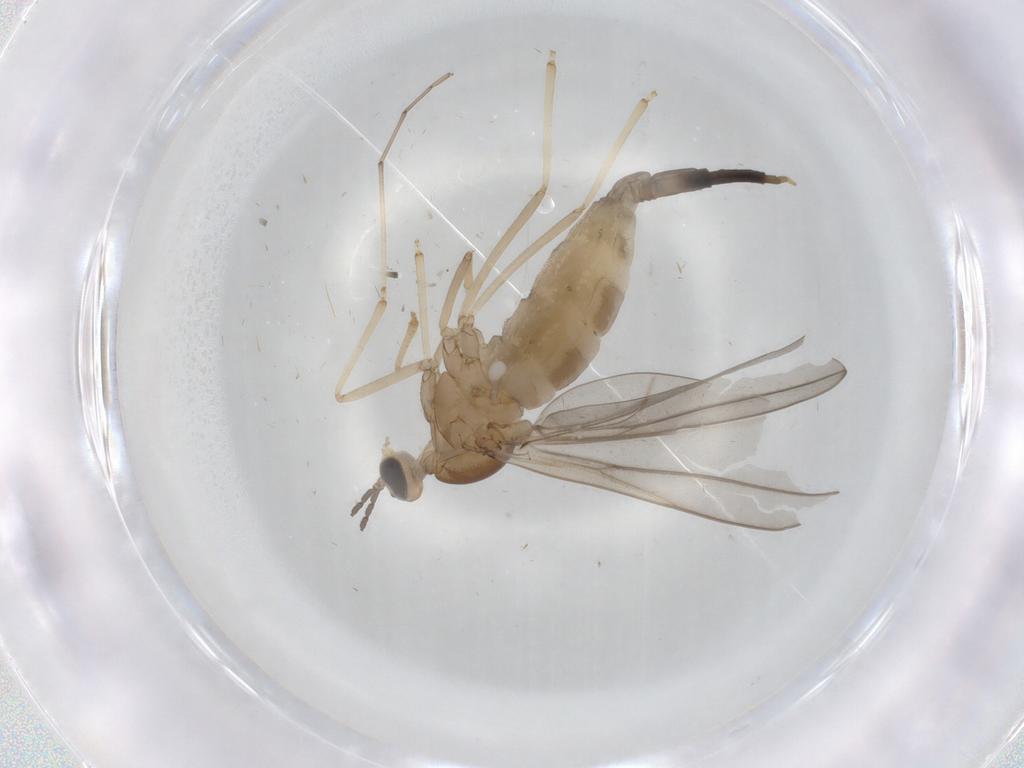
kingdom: Animalia
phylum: Arthropoda
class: Insecta
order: Diptera
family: Cecidomyiidae
